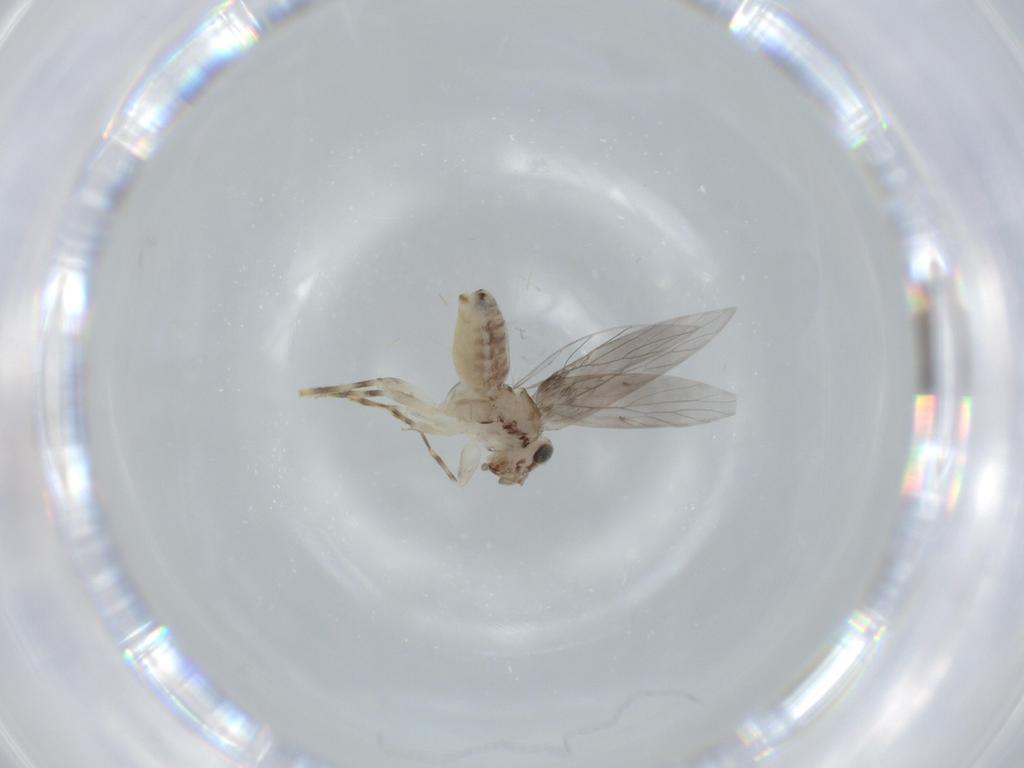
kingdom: Animalia
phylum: Arthropoda
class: Insecta
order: Psocodea
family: Lepidopsocidae
